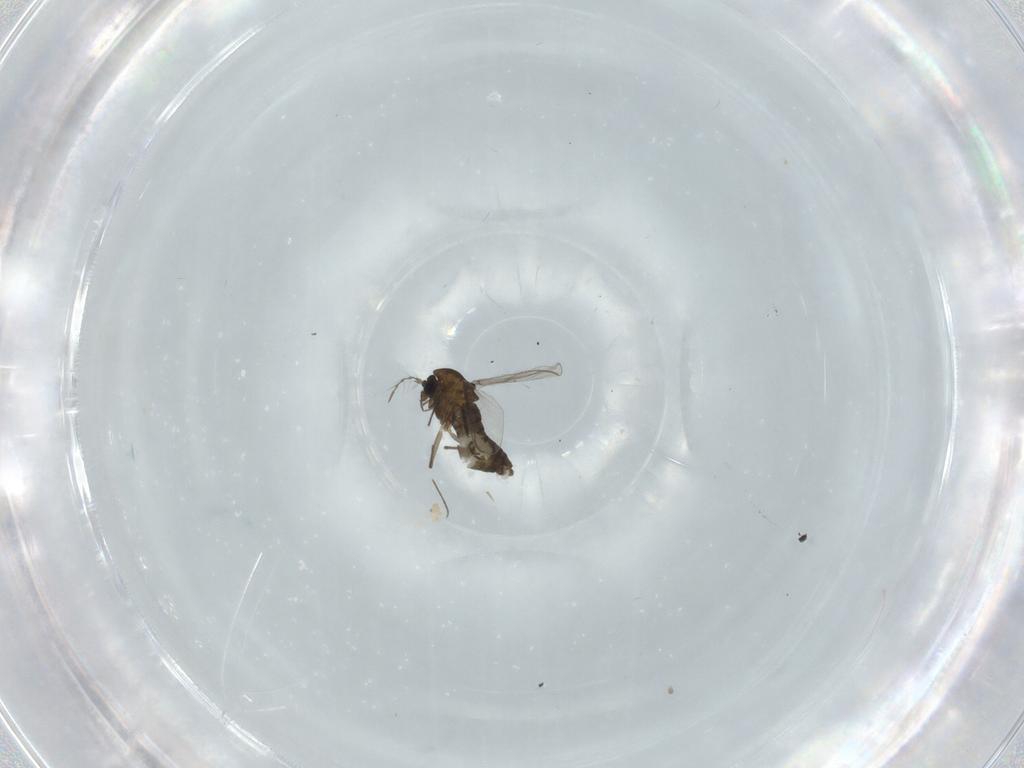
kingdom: Animalia
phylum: Arthropoda
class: Insecta
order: Diptera
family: Chironomidae
